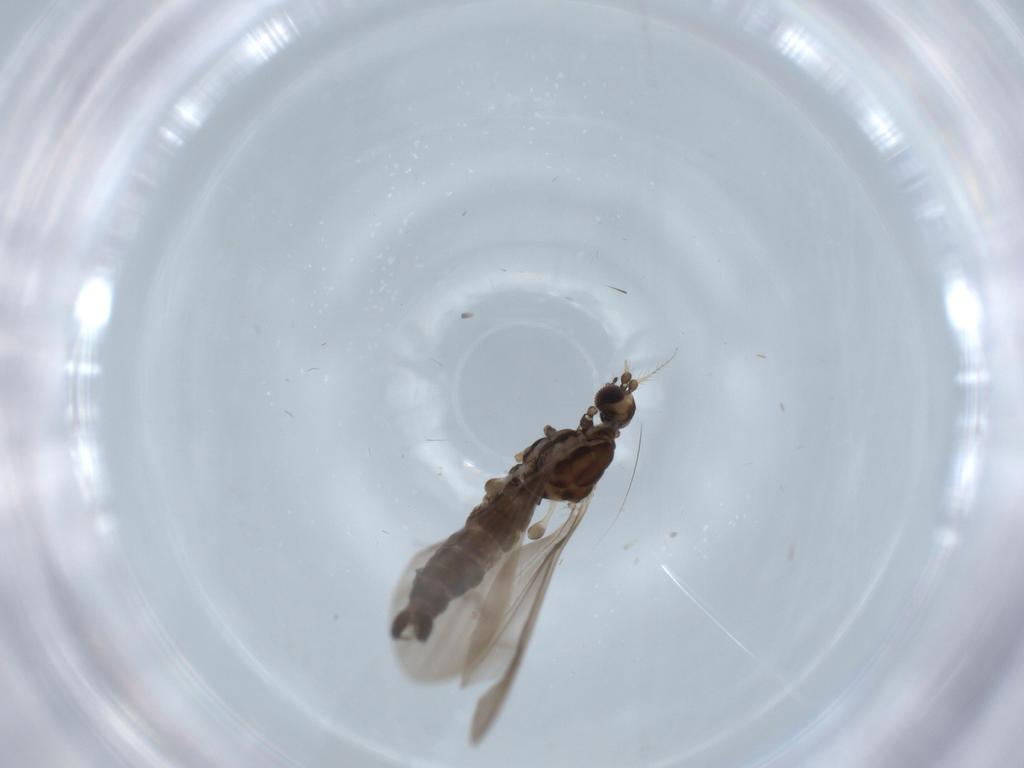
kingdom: Animalia
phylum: Arthropoda
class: Insecta
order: Diptera
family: Limoniidae
